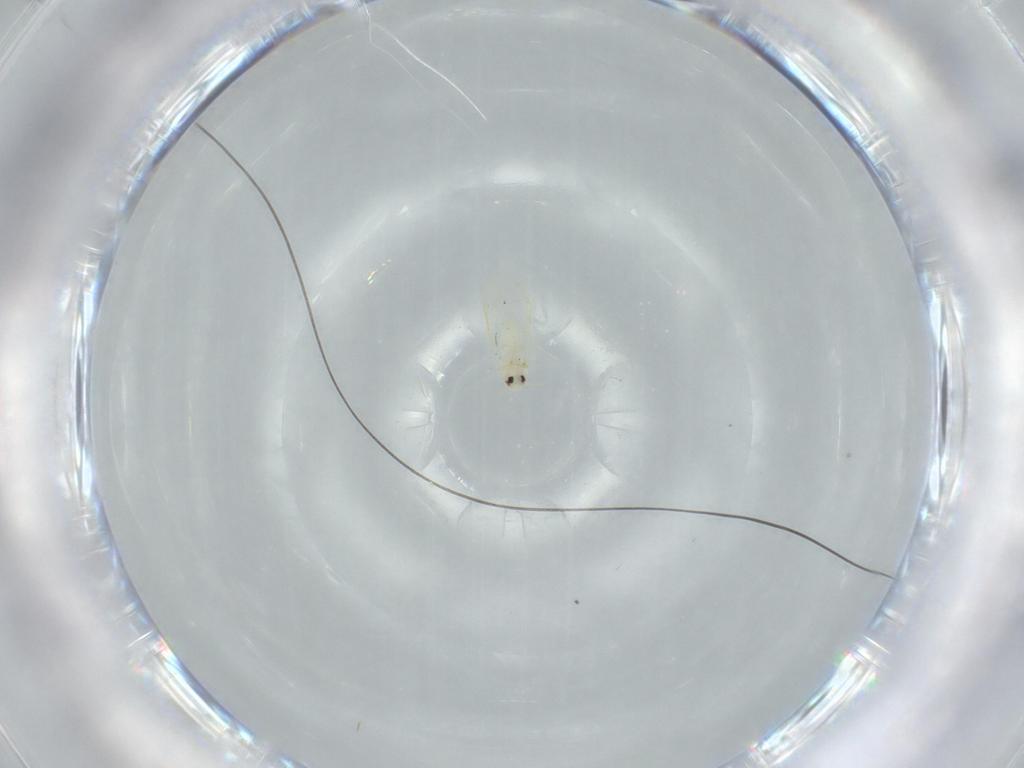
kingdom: Animalia
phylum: Arthropoda
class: Insecta
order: Hemiptera
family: Aleyrodidae
